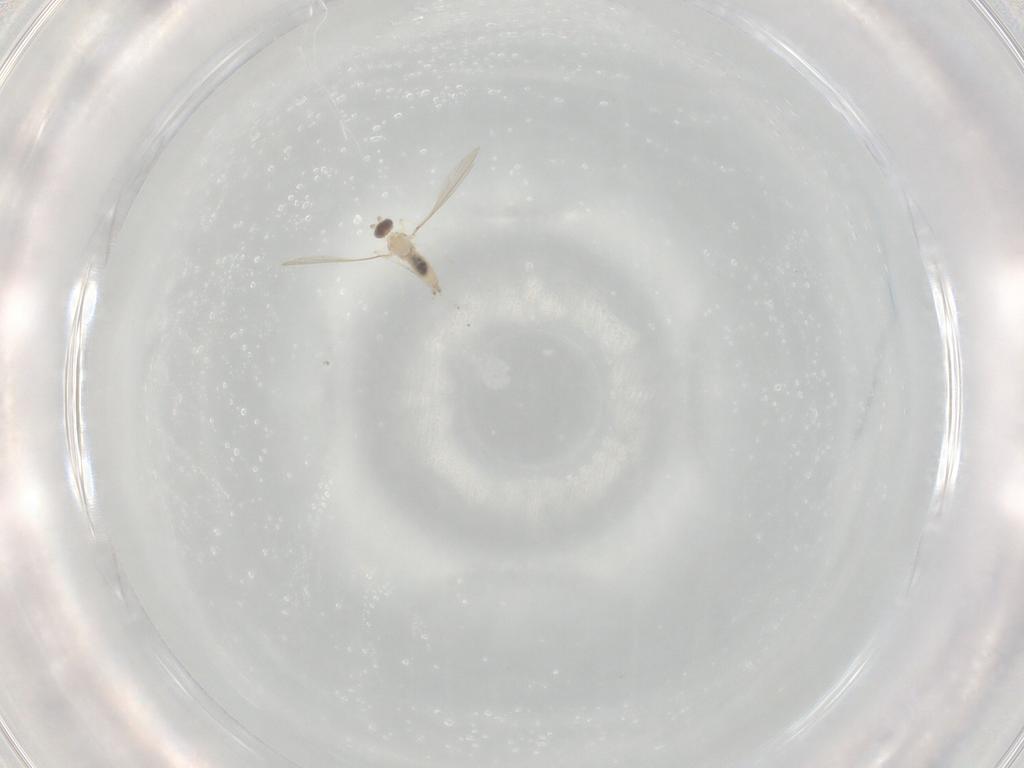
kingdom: Animalia
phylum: Arthropoda
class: Insecta
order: Diptera
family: Cecidomyiidae
